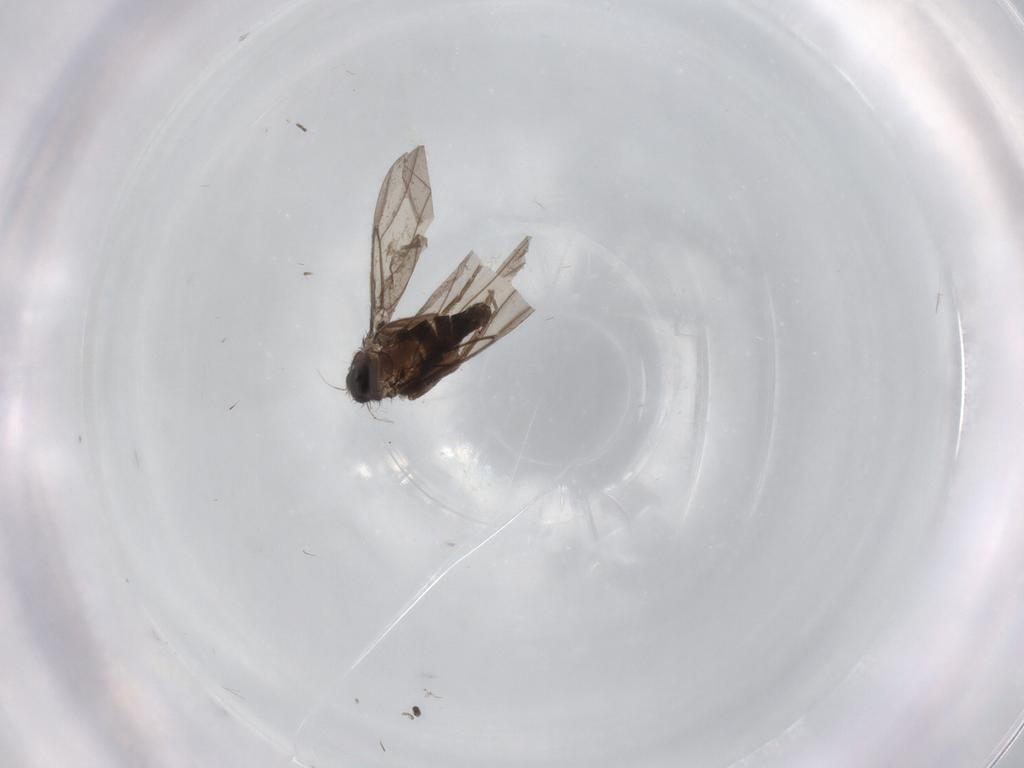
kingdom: Animalia
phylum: Arthropoda
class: Insecta
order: Diptera
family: Phoridae
